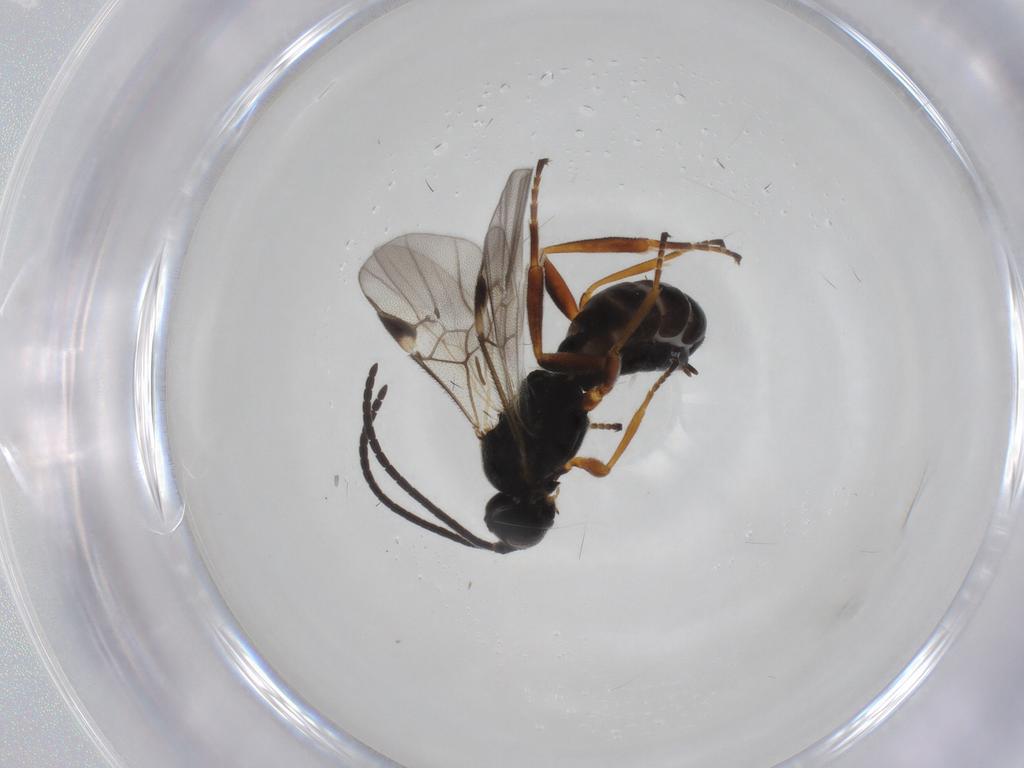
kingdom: Animalia
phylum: Arthropoda
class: Insecta
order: Hymenoptera
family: Braconidae
